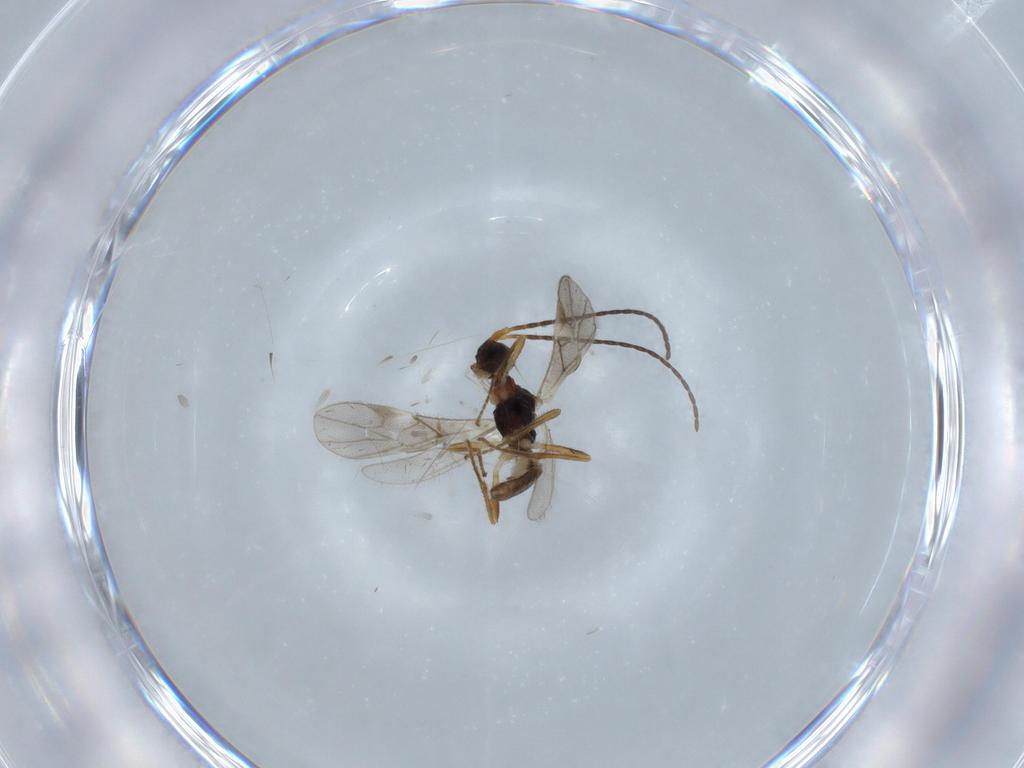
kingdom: Animalia
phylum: Arthropoda
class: Insecta
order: Hymenoptera
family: Braconidae
